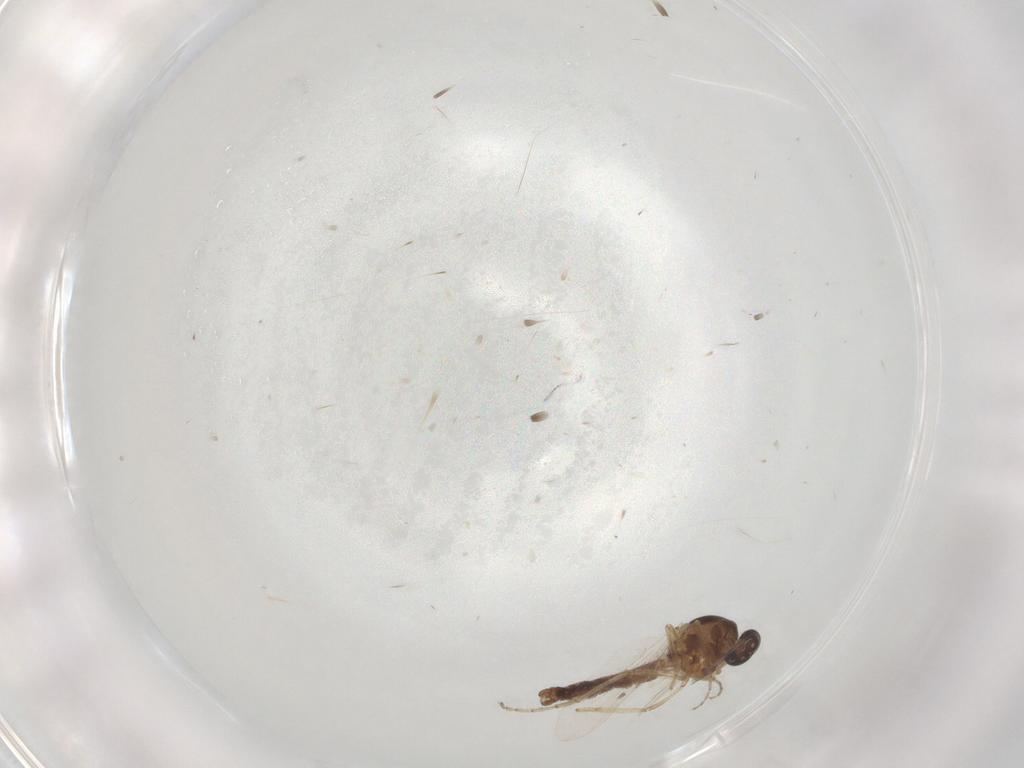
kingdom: Animalia
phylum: Arthropoda
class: Insecta
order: Diptera
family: Ceratopogonidae
